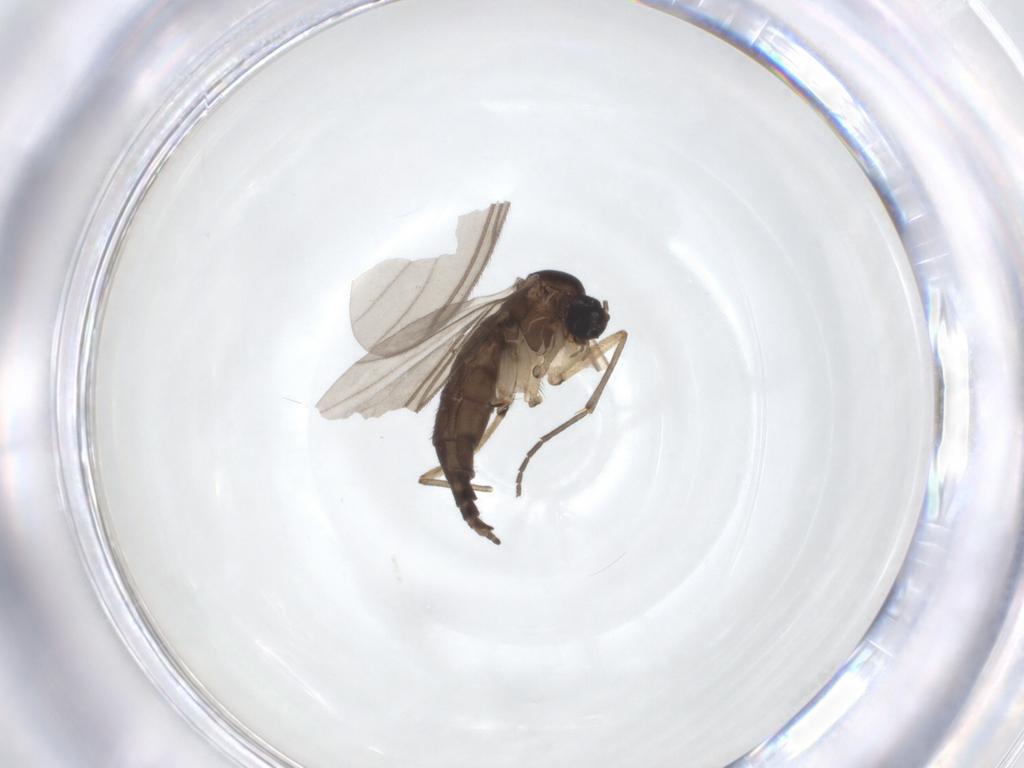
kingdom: Animalia
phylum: Arthropoda
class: Insecta
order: Diptera
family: Sciaridae
